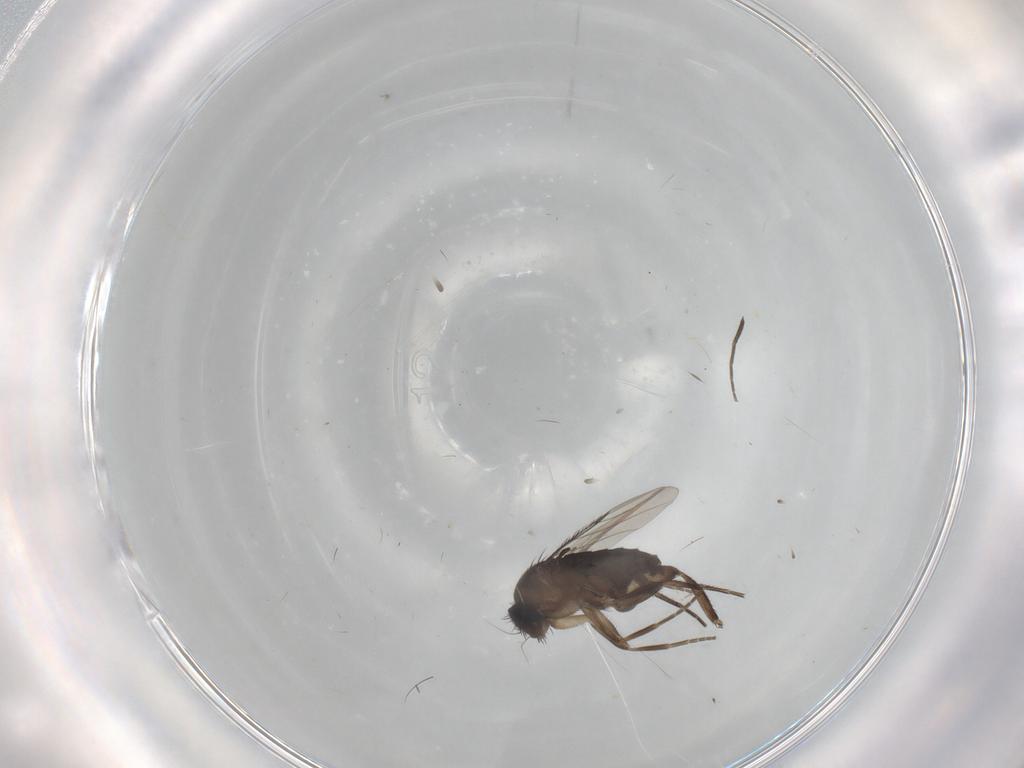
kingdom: Animalia
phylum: Arthropoda
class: Insecta
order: Diptera
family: Phoridae
